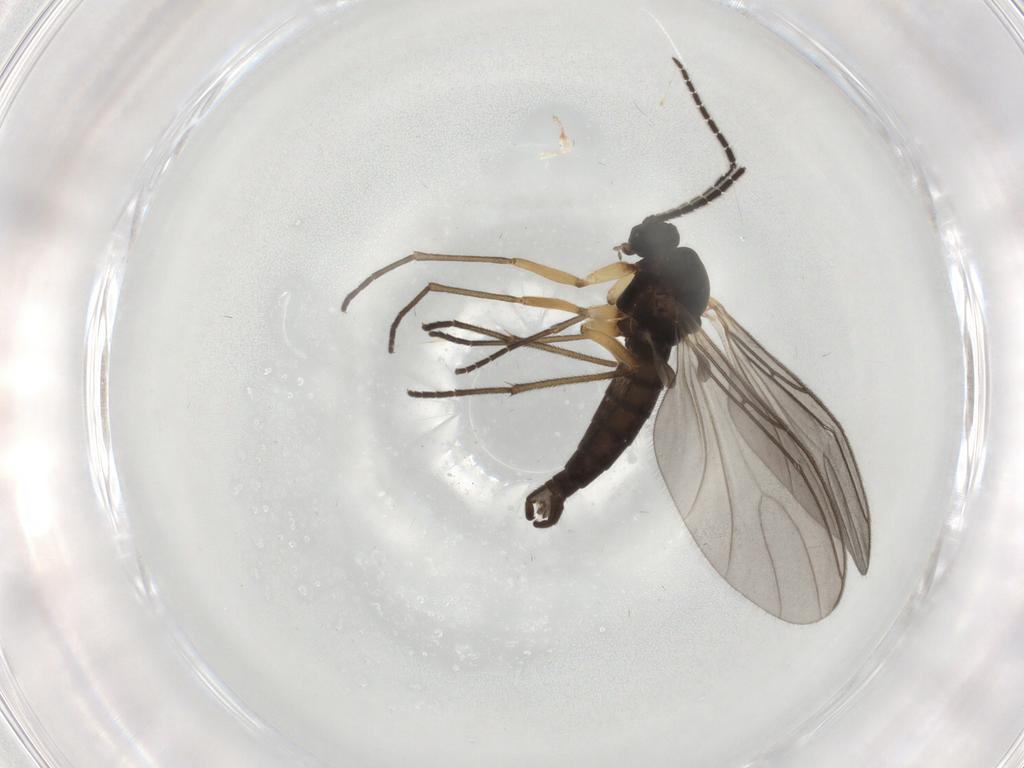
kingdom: Animalia
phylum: Arthropoda
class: Insecta
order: Diptera
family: Sciaridae
